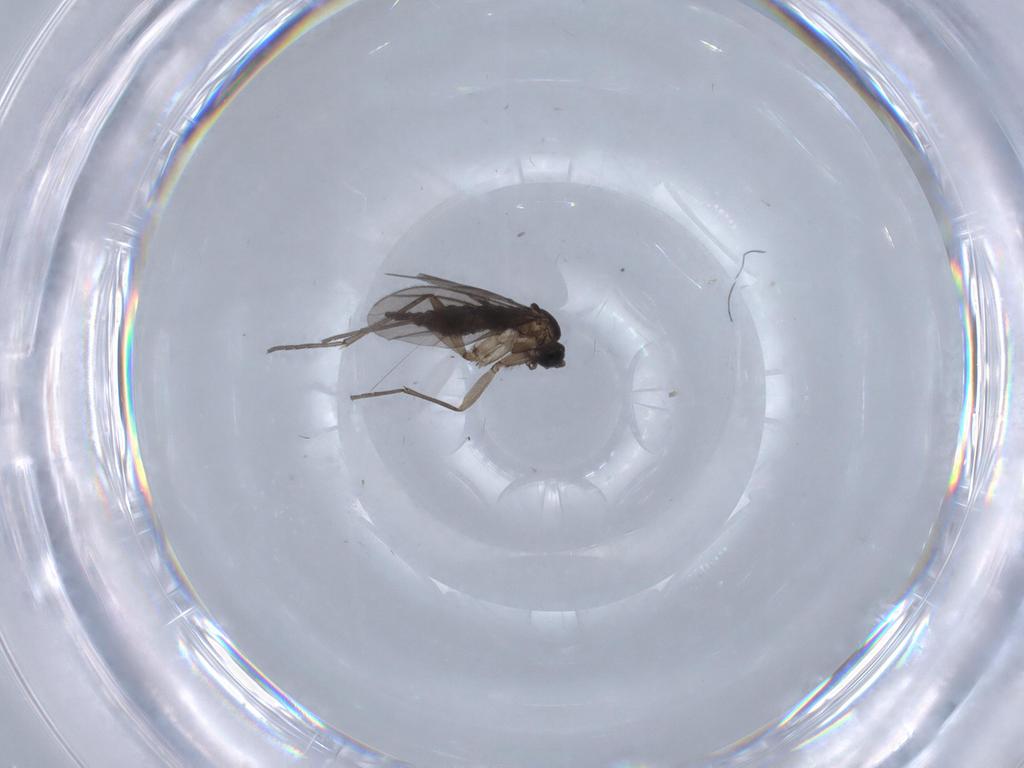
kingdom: Animalia
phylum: Arthropoda
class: Insecta
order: Diptera
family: Sciaridae
